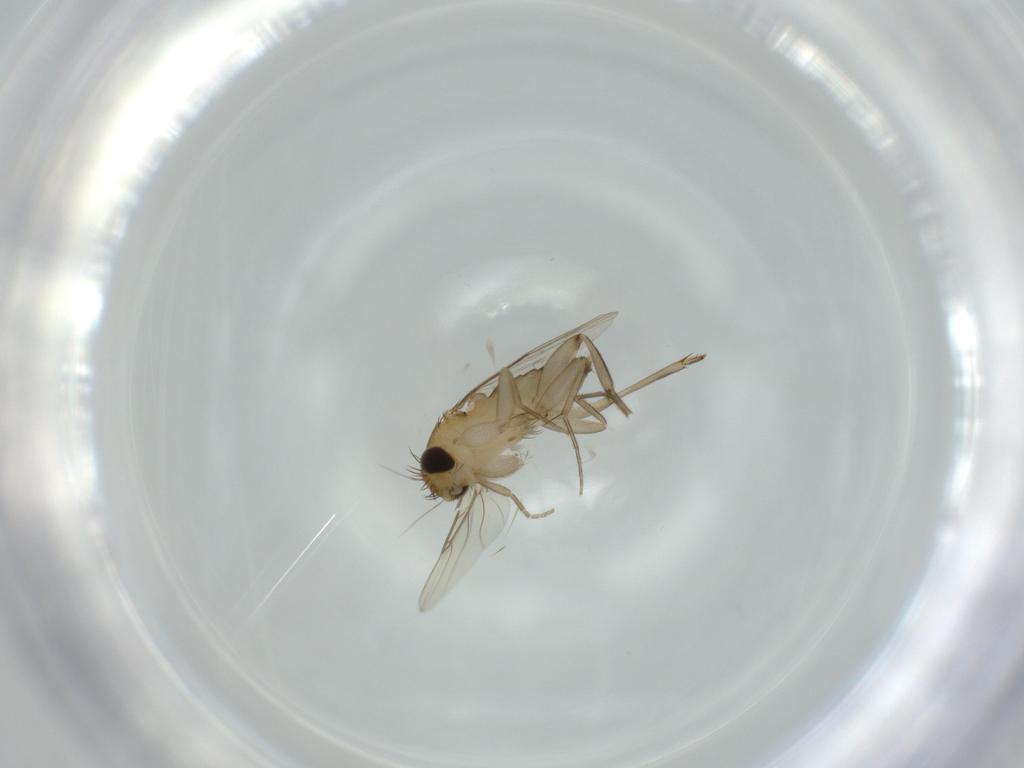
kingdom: Animalia
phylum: Arthropoda
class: Insecta
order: Diptera
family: Phoridae
